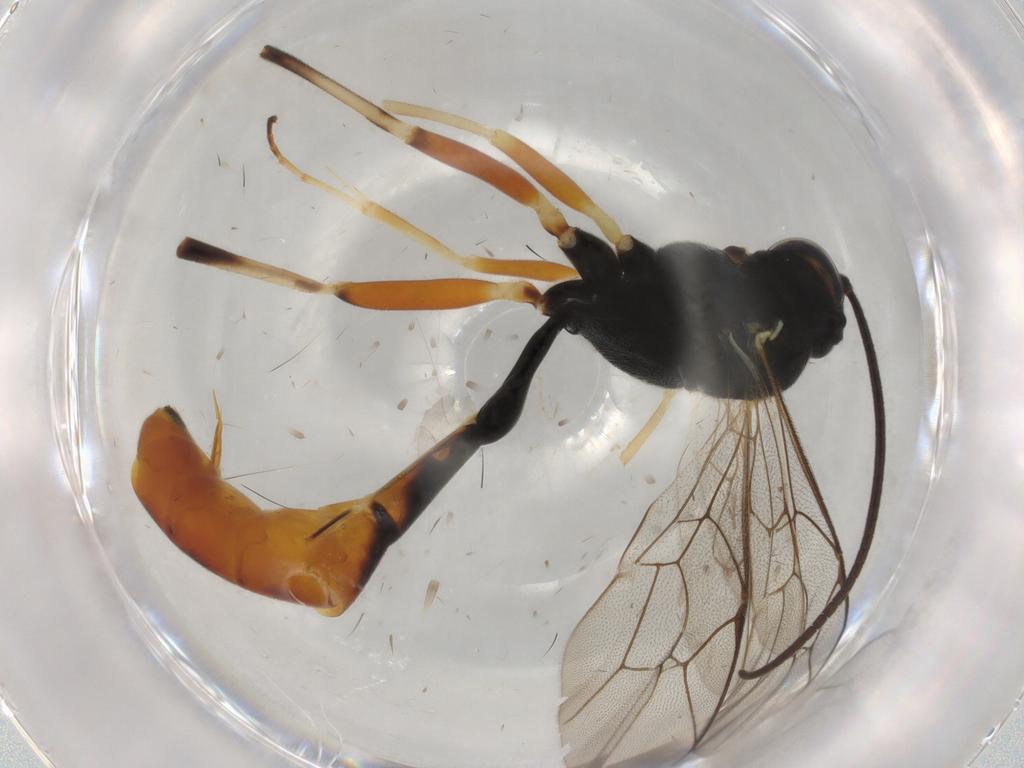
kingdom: Animalia
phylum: Arthropoda
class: Insecta
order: Hymenoptera
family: Ichneumonidae
